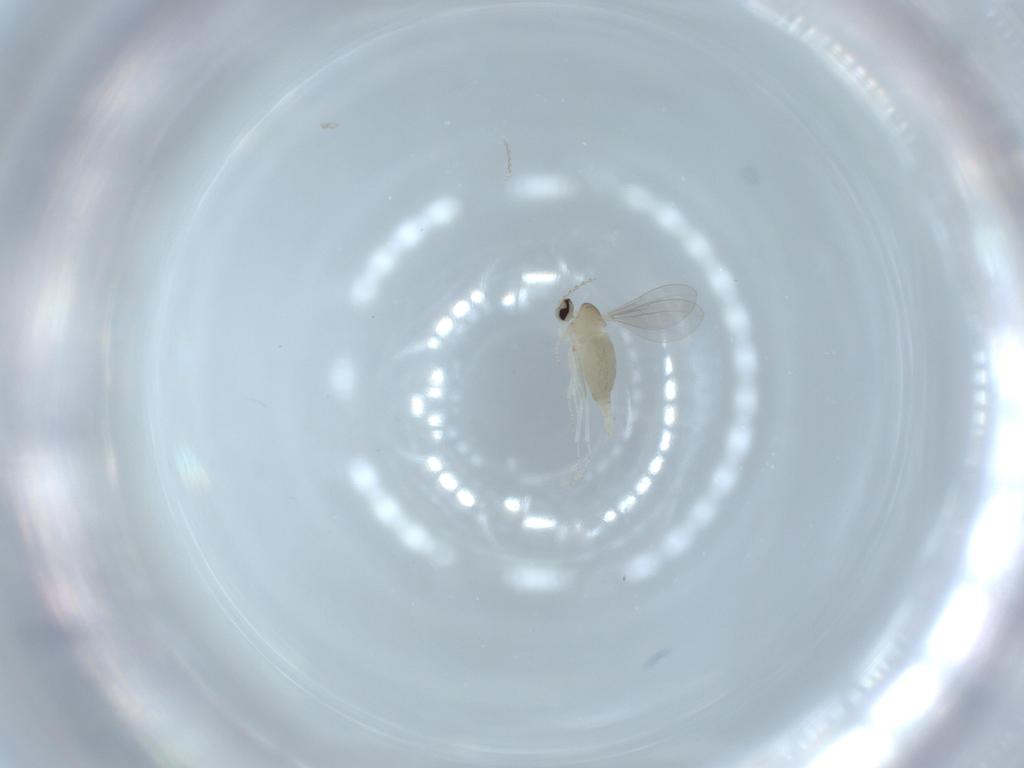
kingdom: Animalia
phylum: Arthropoda
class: Insecta
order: Diptera
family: Cecidomyiidae
